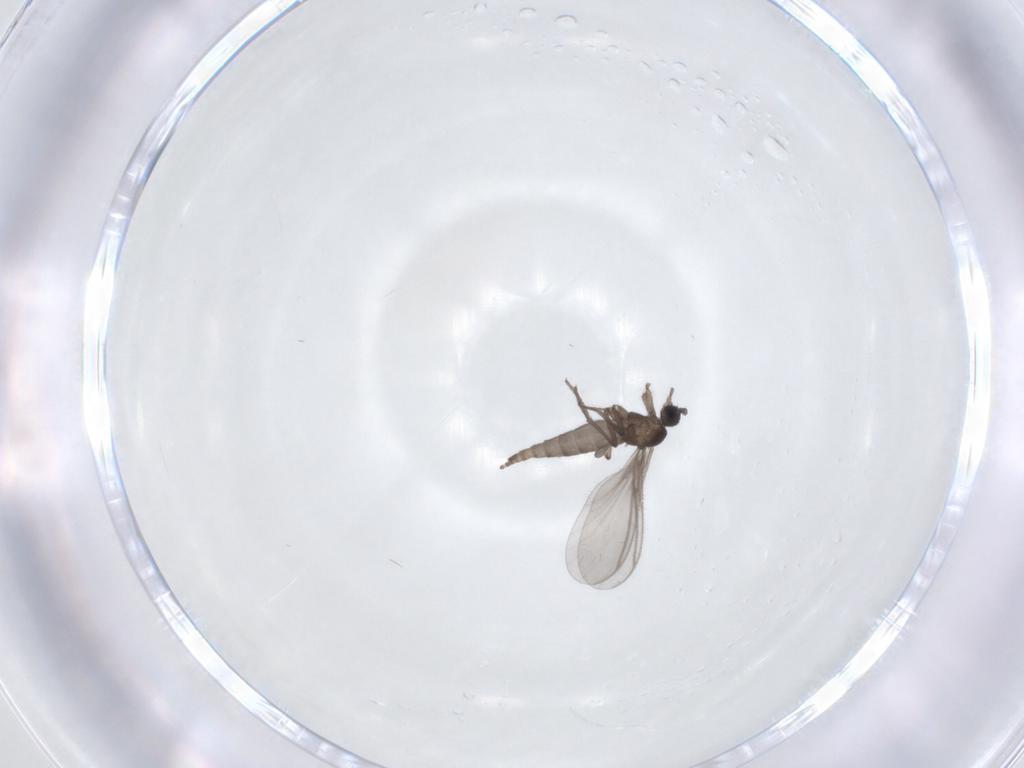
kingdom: Animalia
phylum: Arthropoda
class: Insecta
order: Diptera
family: Sciaridae
